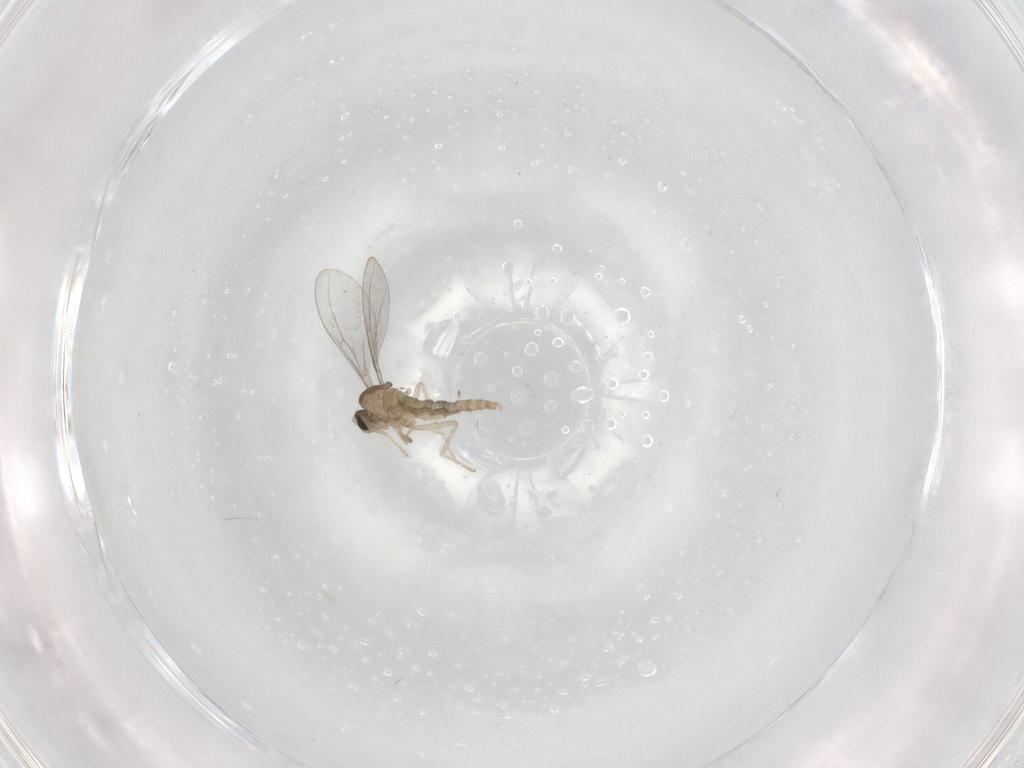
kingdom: Animalia
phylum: Arthropoda
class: Insecta
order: Diptera
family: Cecidomyiidae
